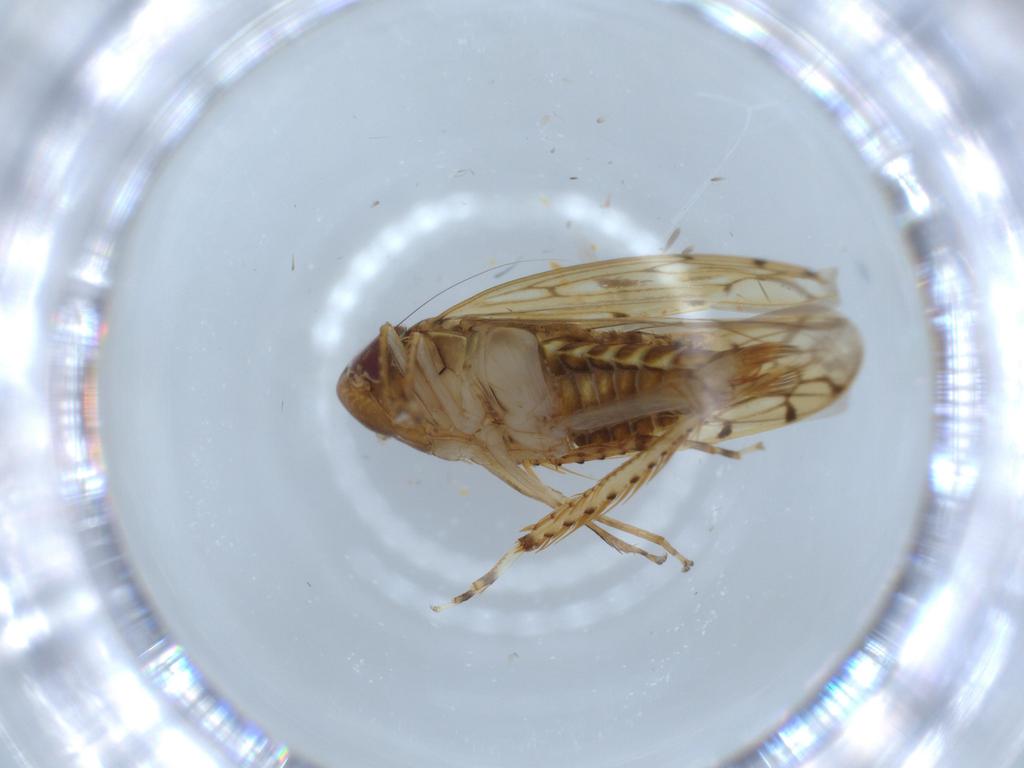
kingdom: Animalia
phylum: Arthropoda
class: Insecta
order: Hemiptera
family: Cicadellidae
